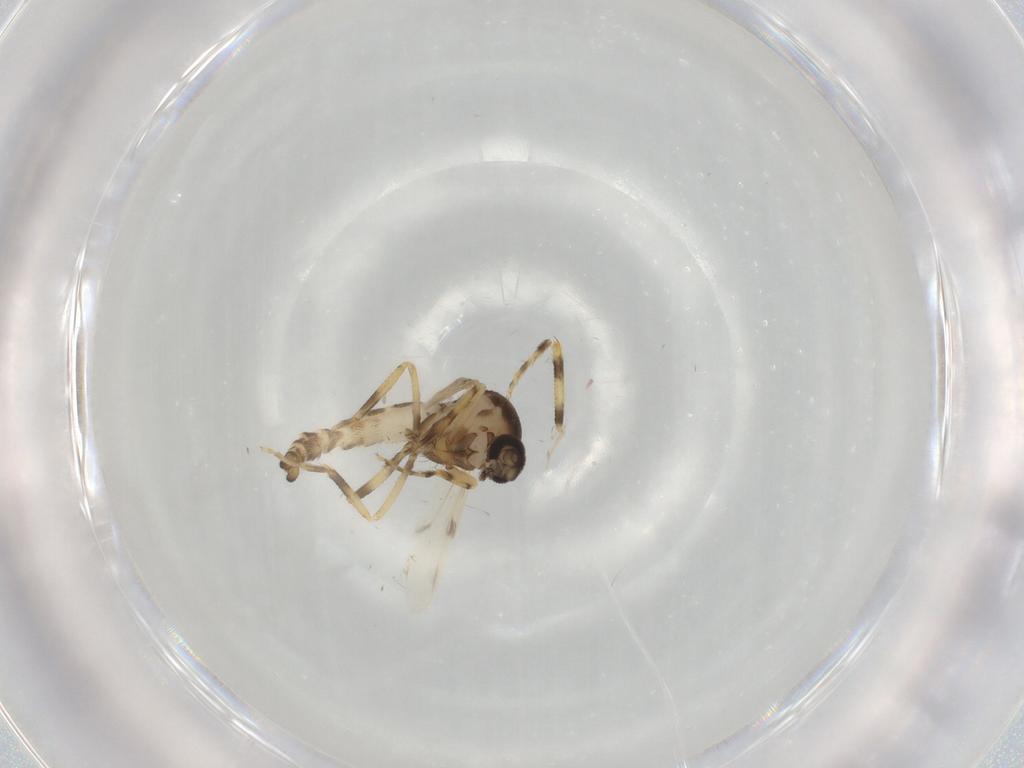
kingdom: Animalia
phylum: Arthropoda
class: Insecta
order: Diptera
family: Ceratopogonidae
